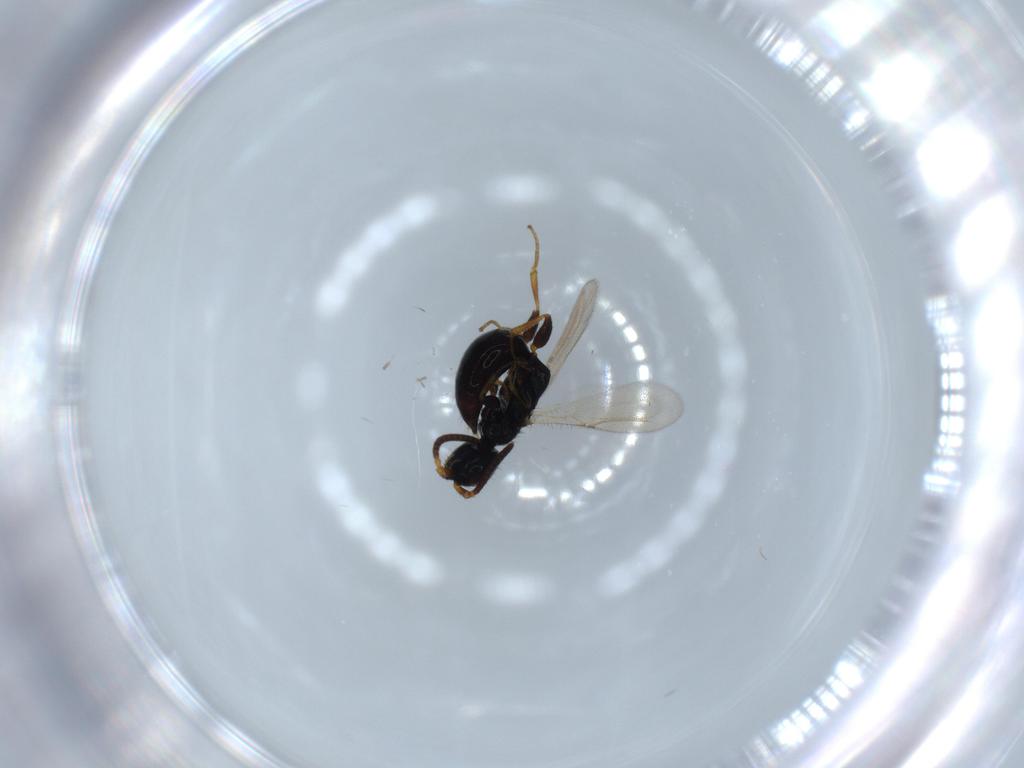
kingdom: Animalia
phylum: Arthropoda
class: Insecta
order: Hymenoptera
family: Bethylidae
